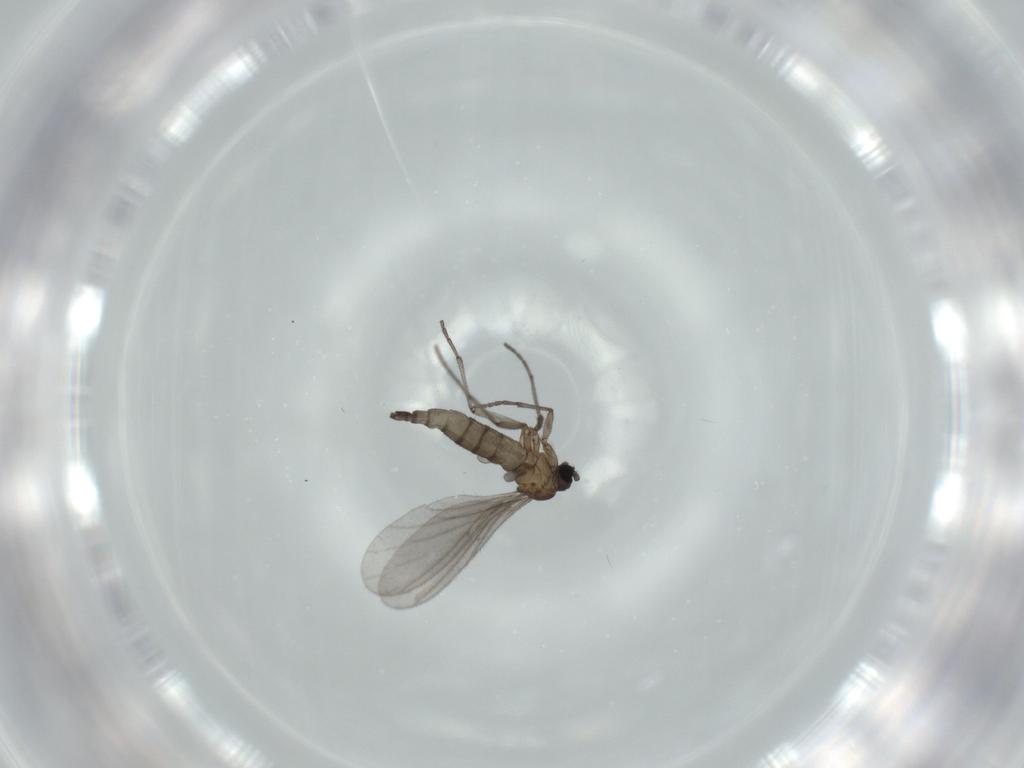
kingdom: Animalia
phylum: Arthropoda
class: Insecta
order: Diptera
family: Sciaridae
